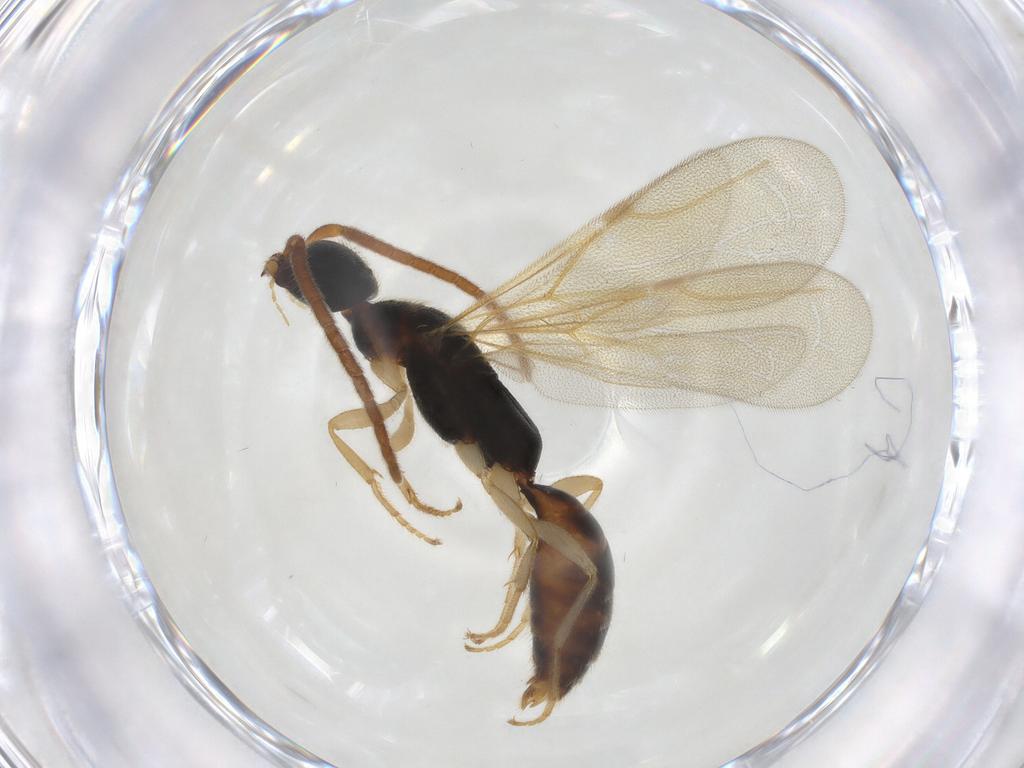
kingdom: Animalia
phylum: Arthropoda
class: Insecta
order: Hymenoptera
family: Bethylidae
